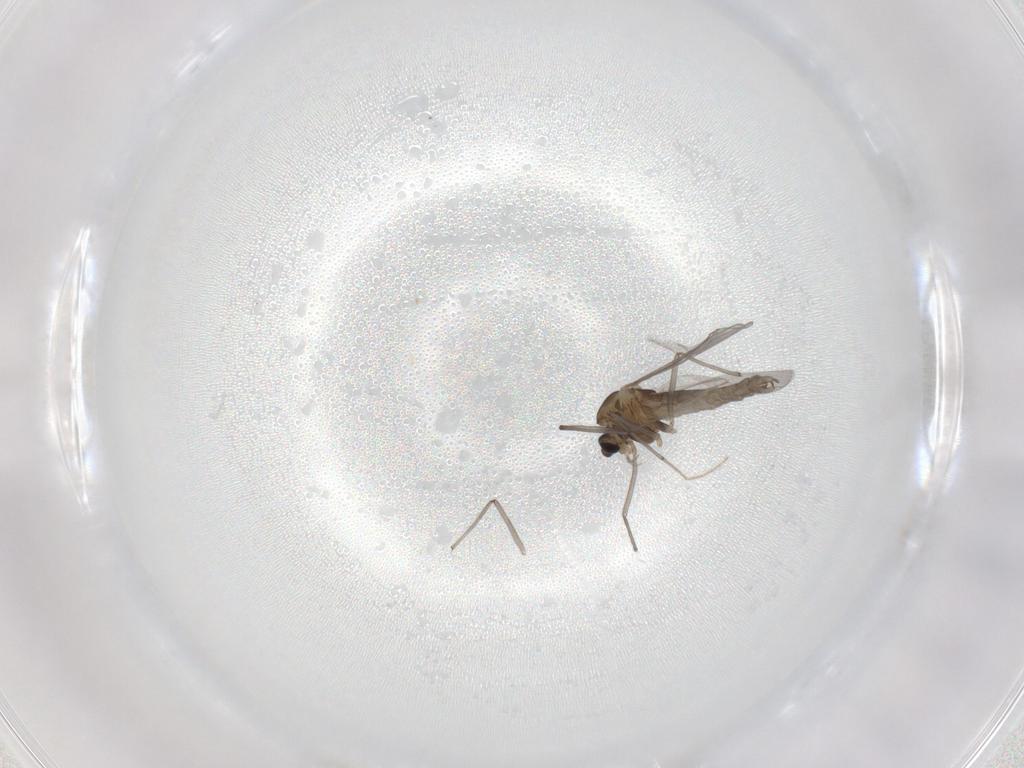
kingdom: Animalia
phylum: Arthropoda
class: Insecta
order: Diptera
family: Chironomidae
